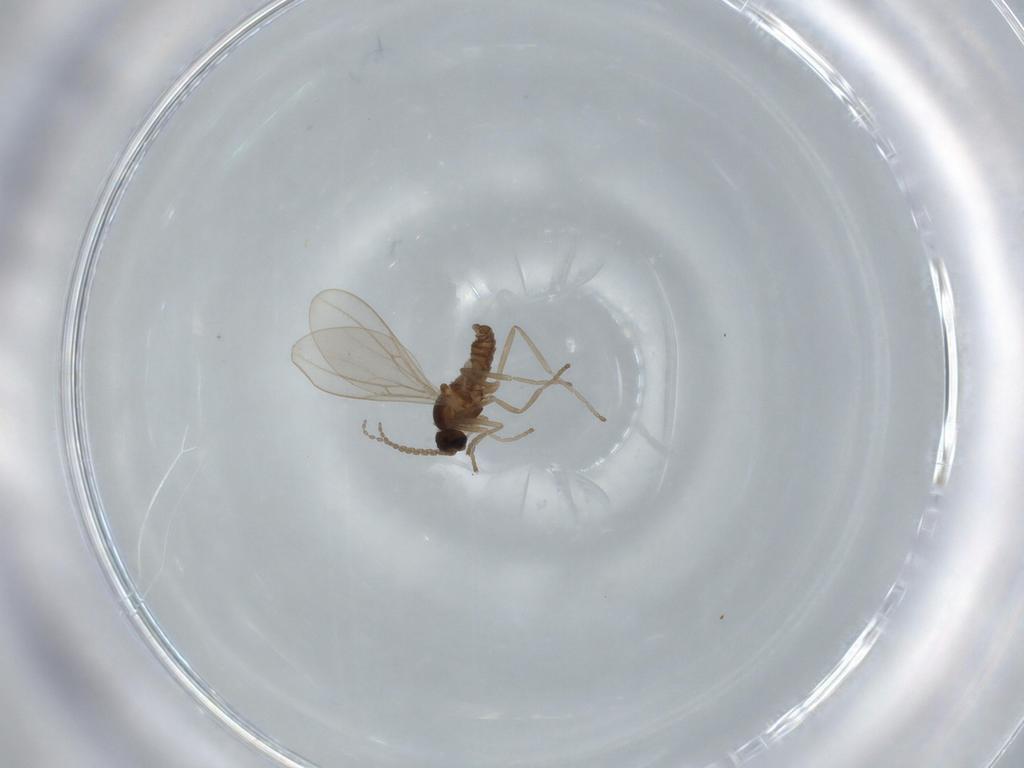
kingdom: Animalia
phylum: Arthropoda
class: Insecta
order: Diptera
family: Cecidomyiidae
